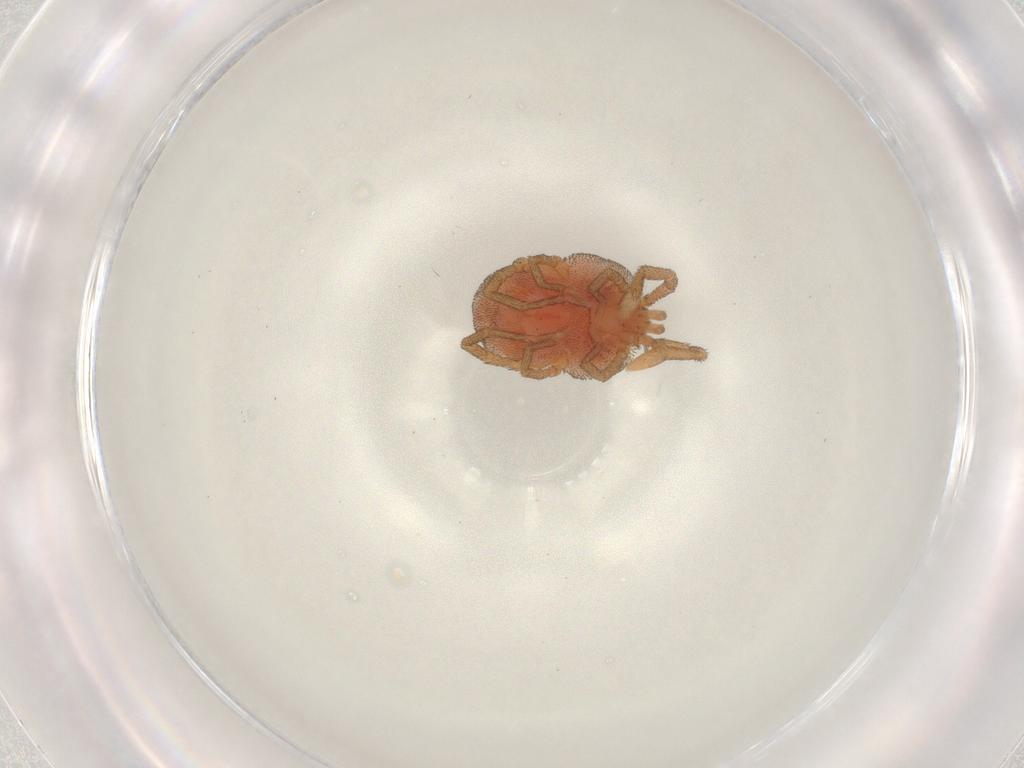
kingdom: Animalia
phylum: Arthropoda
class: Arachnida
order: Trombidiformes
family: Erythraeidae
